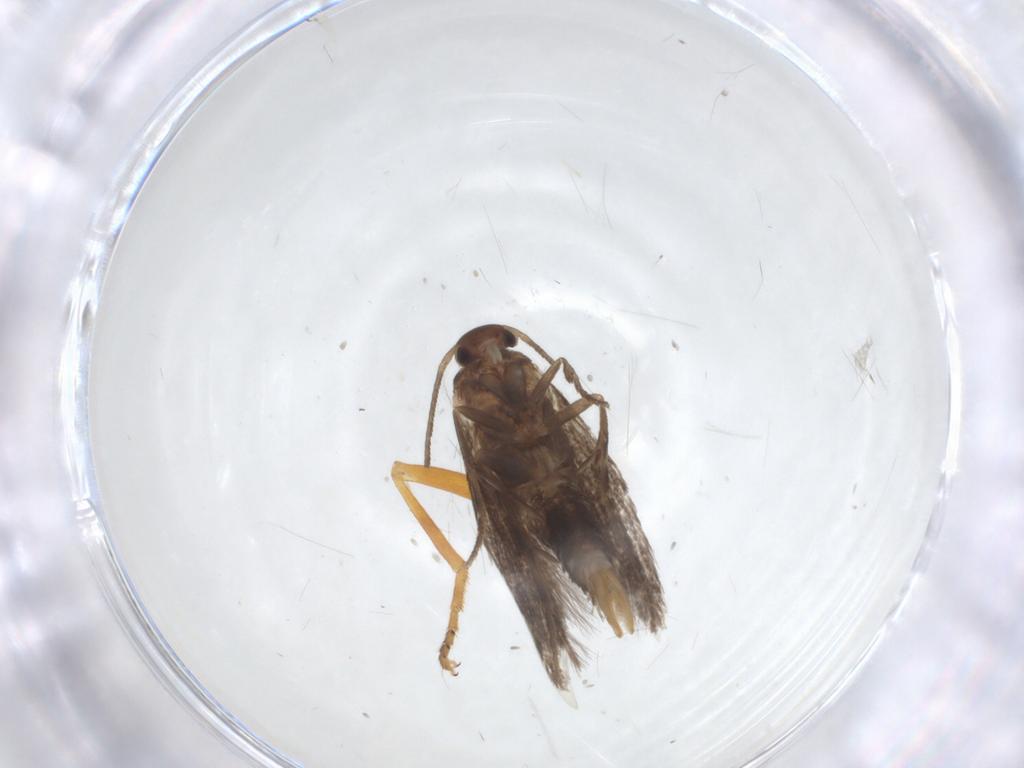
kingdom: Animalia
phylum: Arthropoda
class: Insecta
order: Lepidoptera
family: Elachistidae
